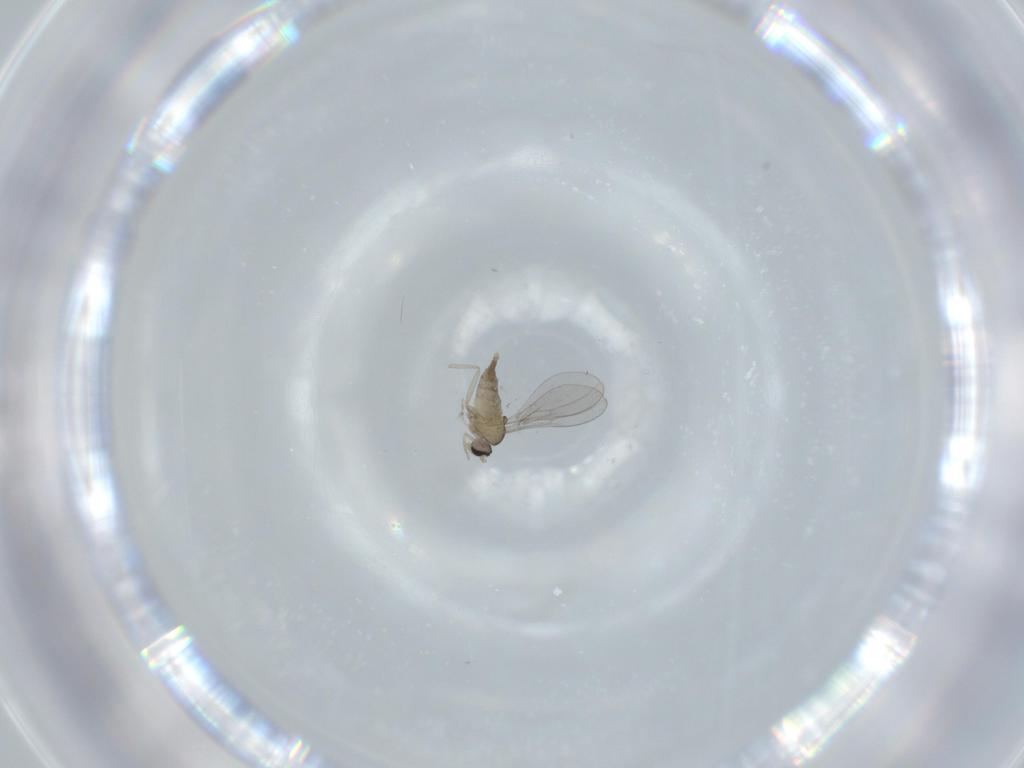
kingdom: Animalia
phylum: Arthropoda
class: Insecta
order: Diptera
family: Cecidomyiidae
